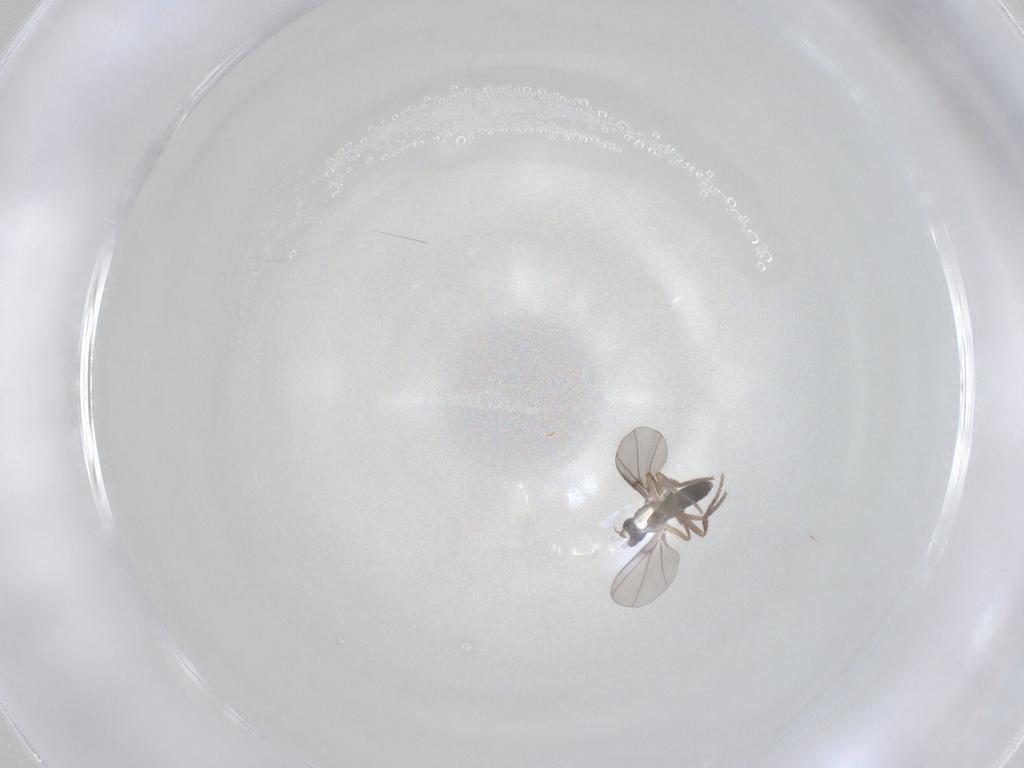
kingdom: Animalia
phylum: Arthropoda
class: Insecta
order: Diptera
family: Phoridae
